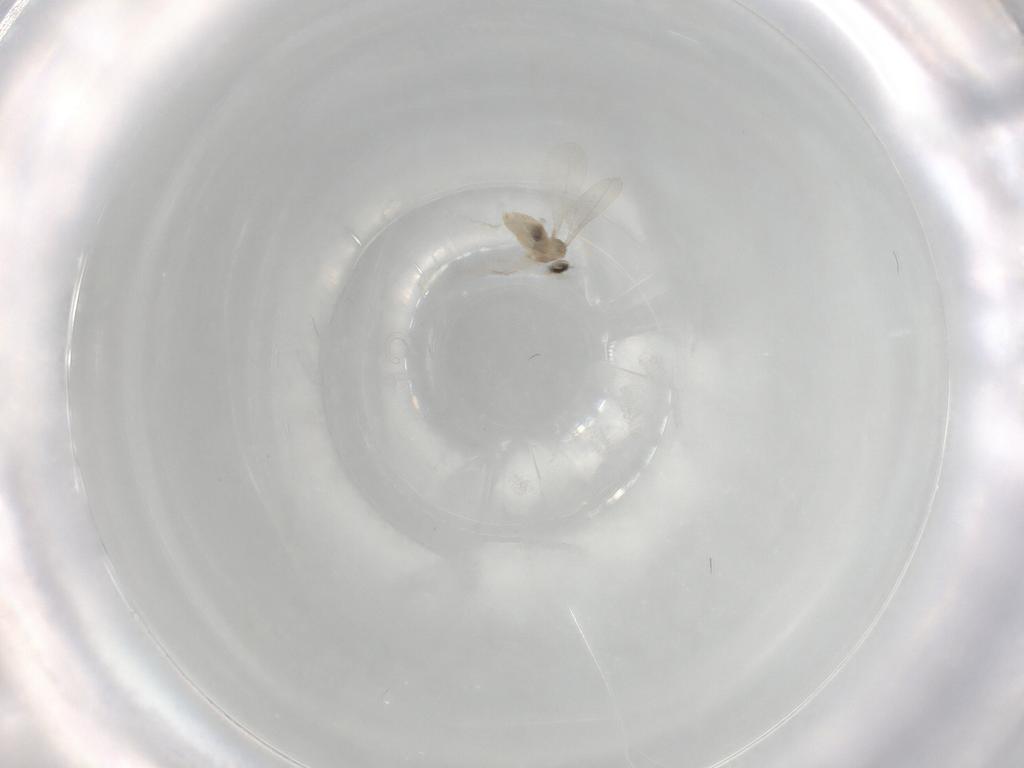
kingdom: Animalia
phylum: Arthropoda
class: Insecta
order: Diptera
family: Cecidomyiidae
